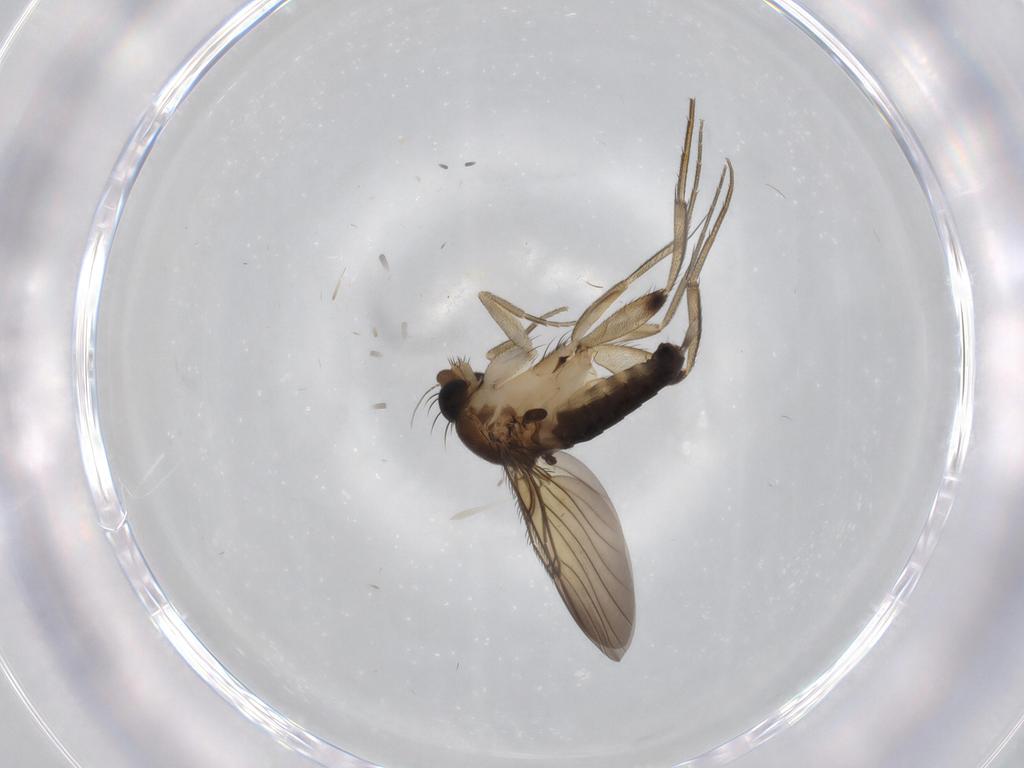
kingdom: Animalia
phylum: Arthropoda
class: Insecta
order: Diptera
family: Phoridae
